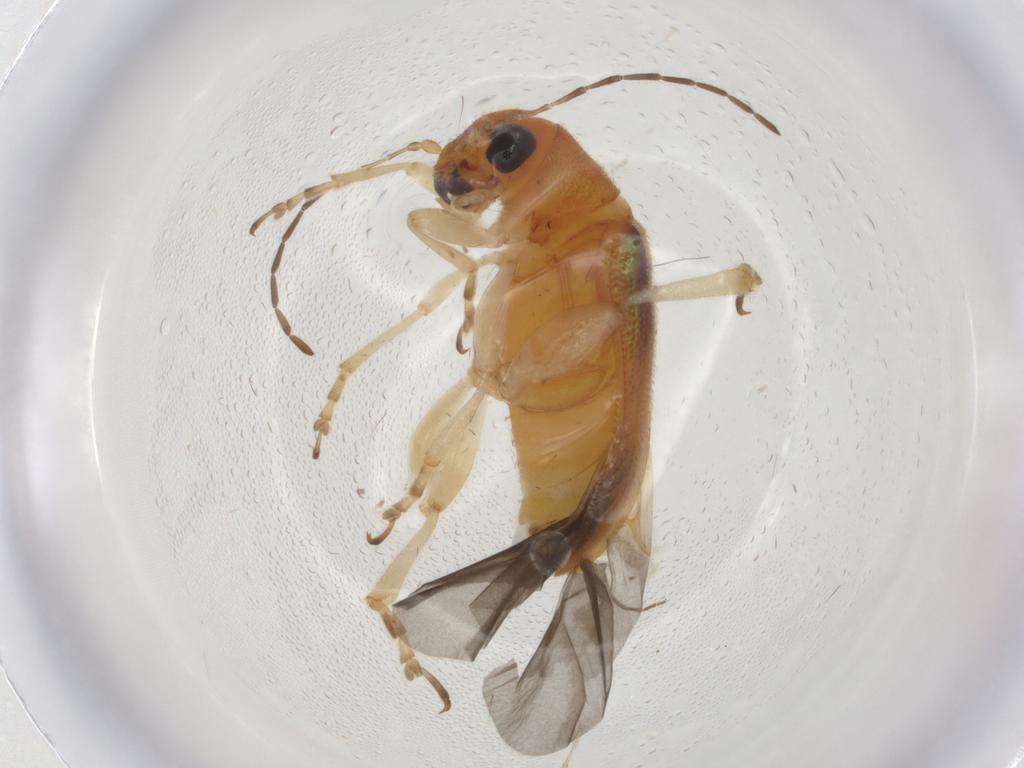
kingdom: Animalia
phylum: Arthropoda
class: Insecta
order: Coleoptera
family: Chrysomelidae
